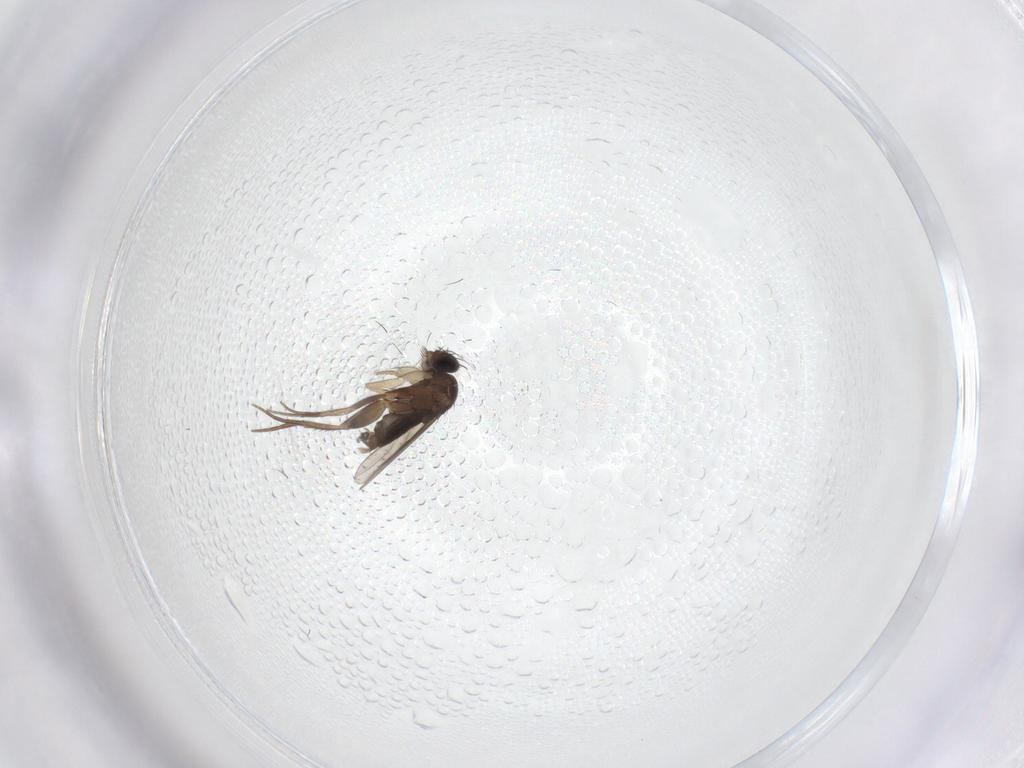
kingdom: Animalia
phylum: Arthropoda
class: Insecta
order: Diptera
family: Phoridae
